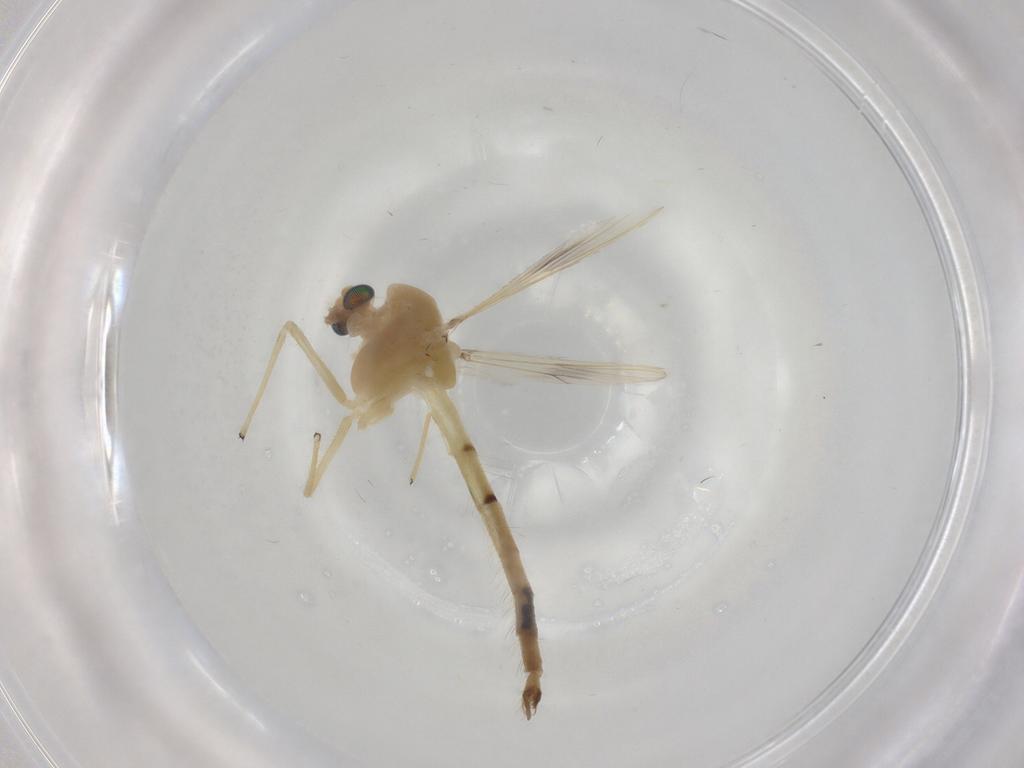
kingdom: Animalia
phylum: Arthropoda
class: Insecta
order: Diptera
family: Chironomidae
